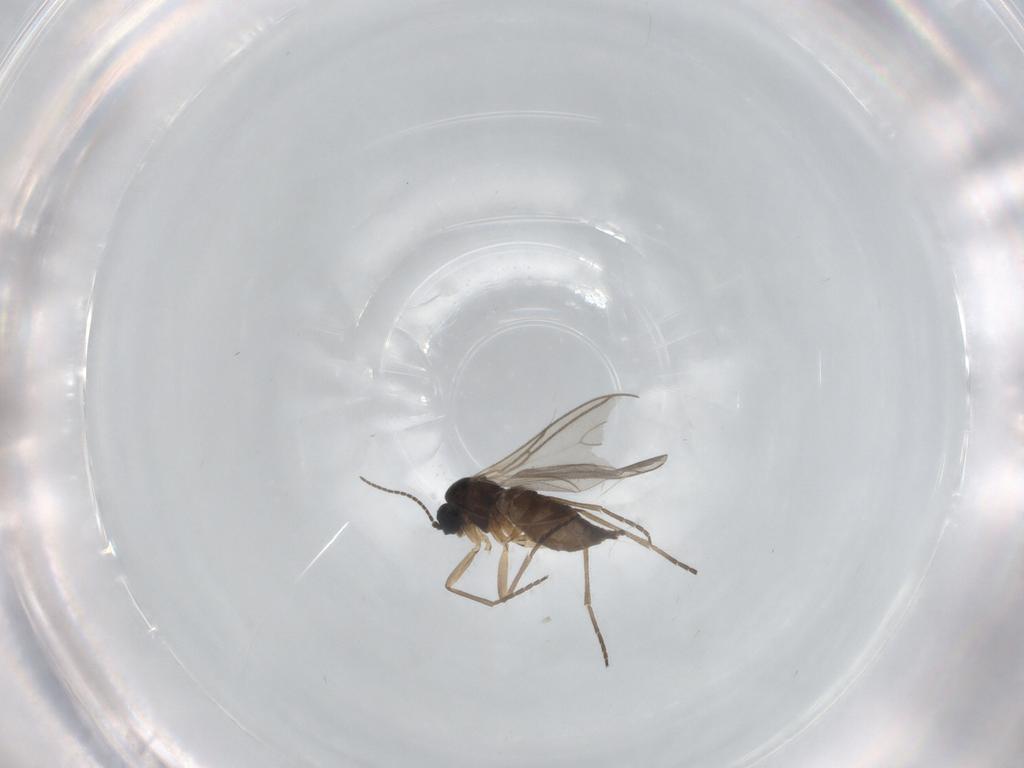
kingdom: Animalia
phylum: Arthropoda
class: Insecta
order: Diptera
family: Sciaridae
